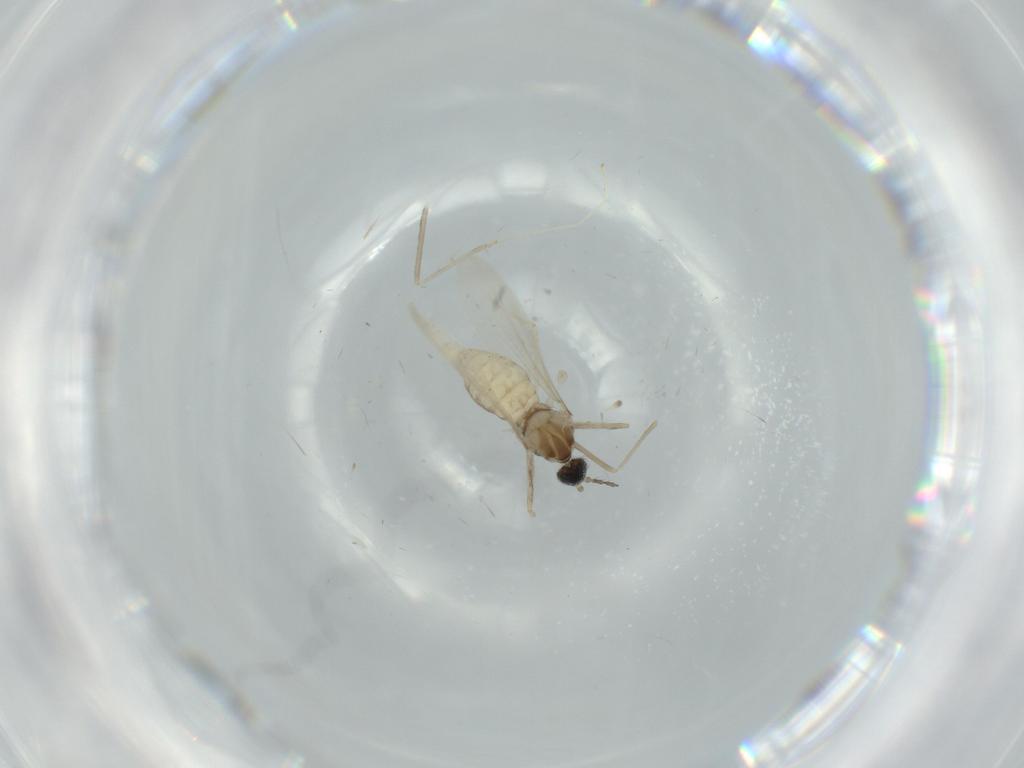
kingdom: Animalia
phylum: Arthropoda
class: Insecta
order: Diptera
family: Cecidomyiidae
